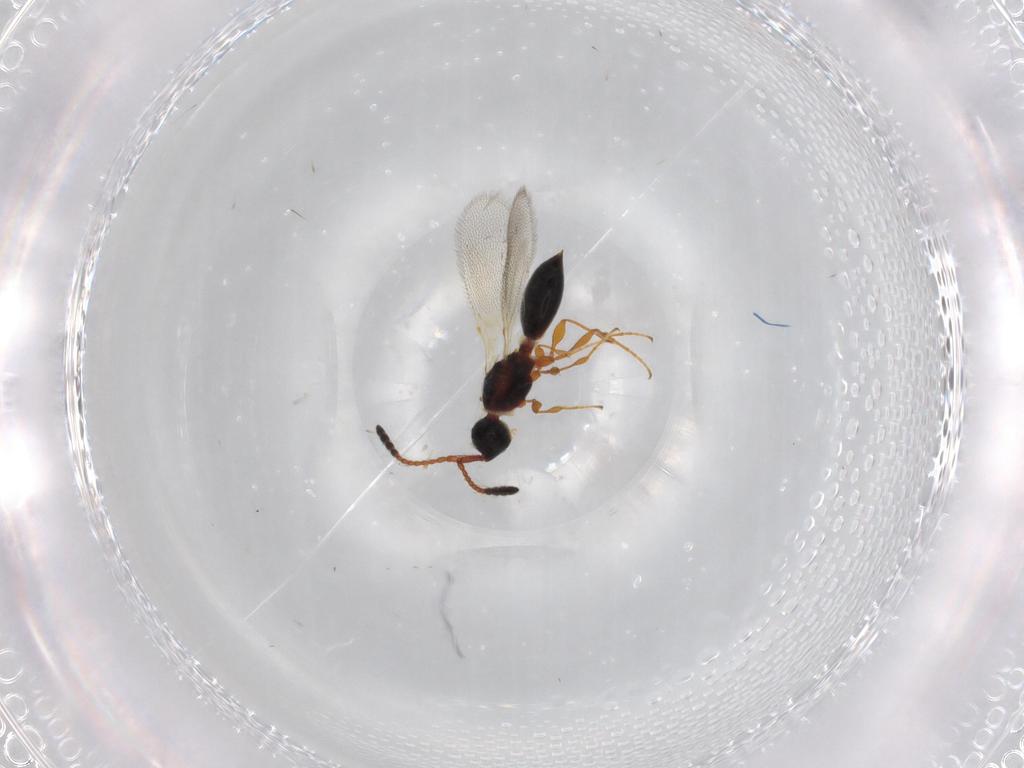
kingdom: Animalia
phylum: Arthropoda
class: Insecta
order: Hymenoptera
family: Diapriidae
